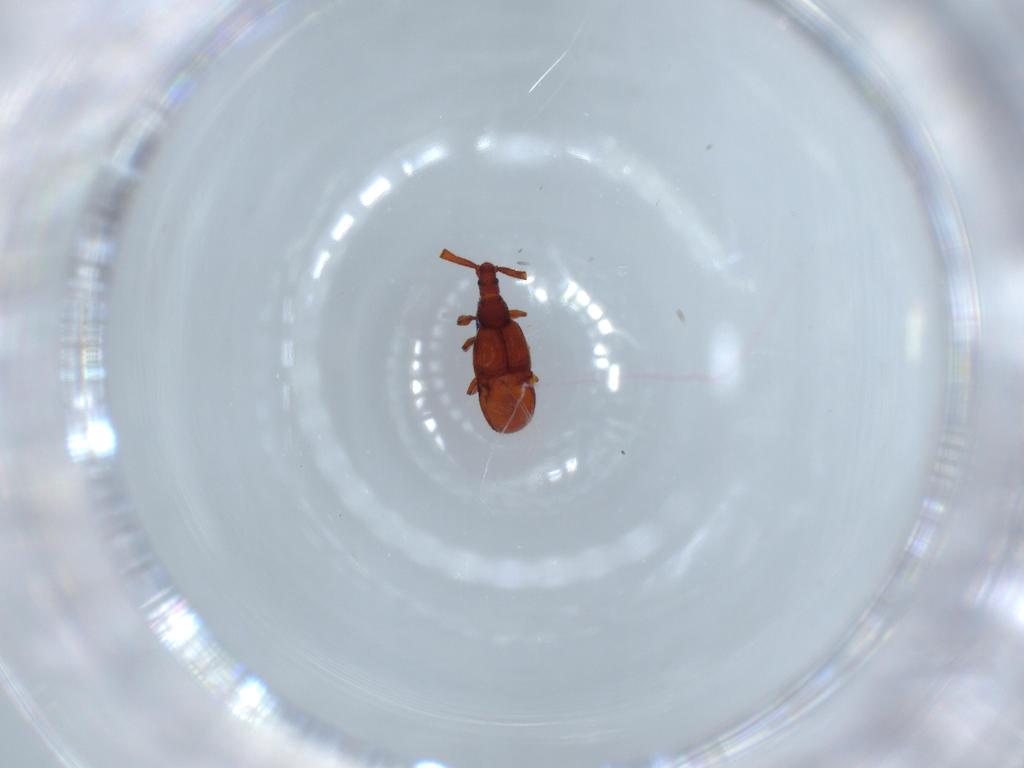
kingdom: Animalia
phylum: Arthropoda
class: Insecta
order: Coleoptera
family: Staphylinidae
